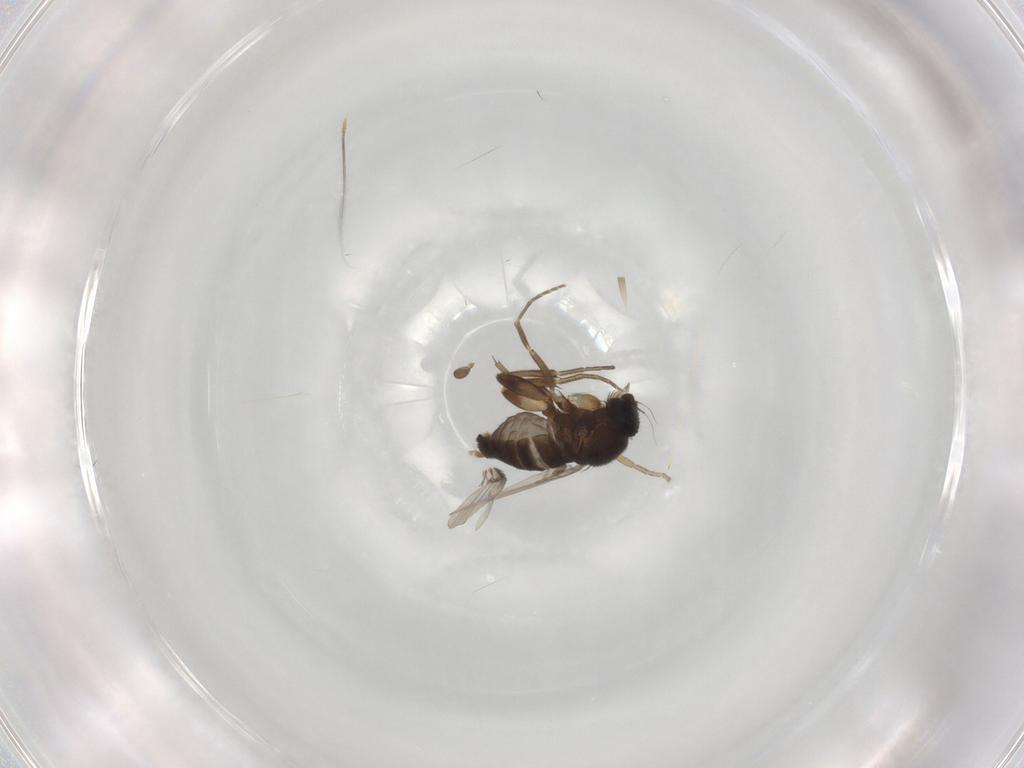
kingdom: Animalia
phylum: Arthropoda
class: Insecta
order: Diptera
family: Phoridae
